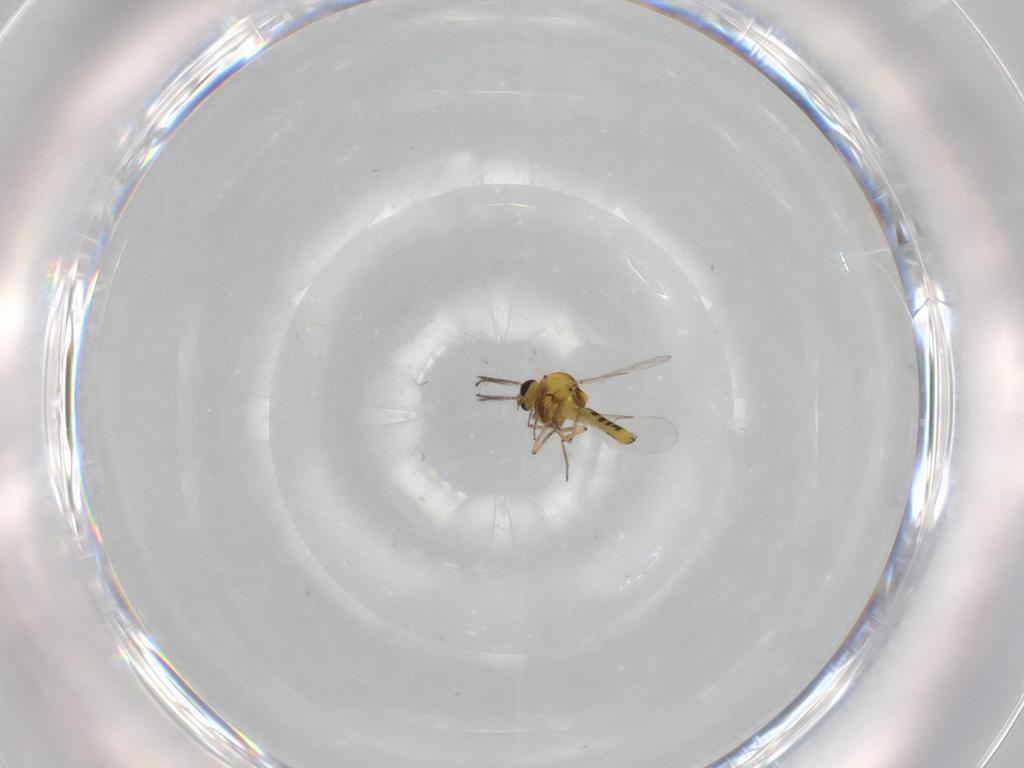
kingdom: Animalia
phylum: Arthropoda
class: Insecta
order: Diptera
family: Ceratopogonidae
